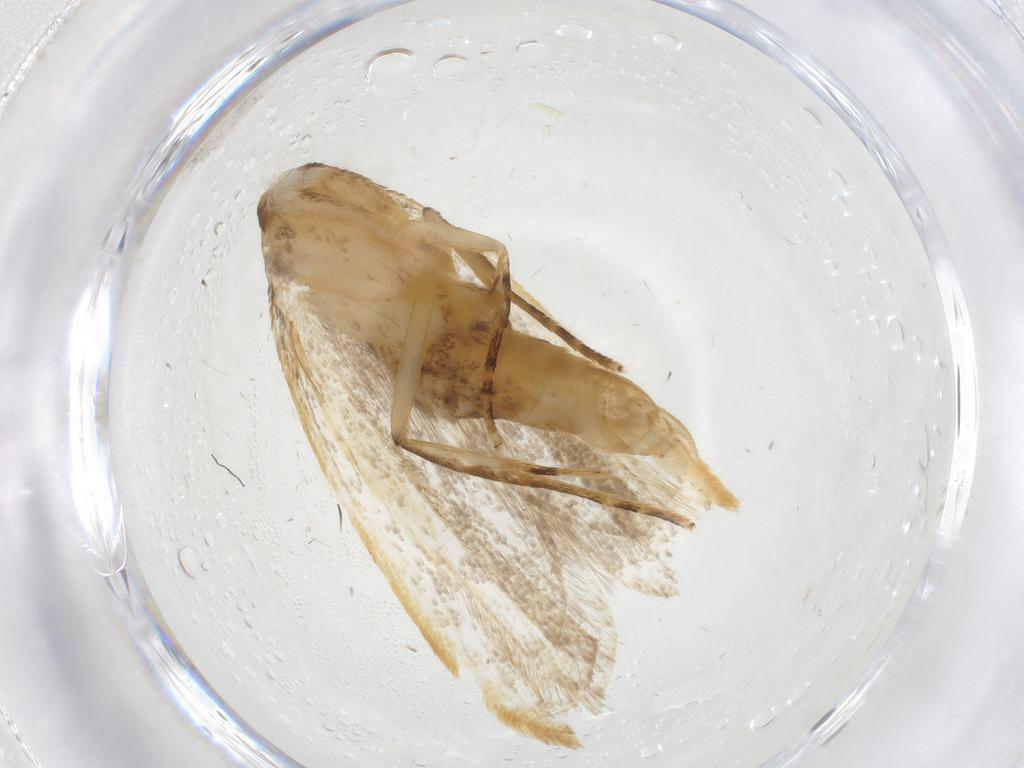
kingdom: Animalia
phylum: Arthropoda
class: Insecta
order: Lepidoptera
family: Lecithoceridae
